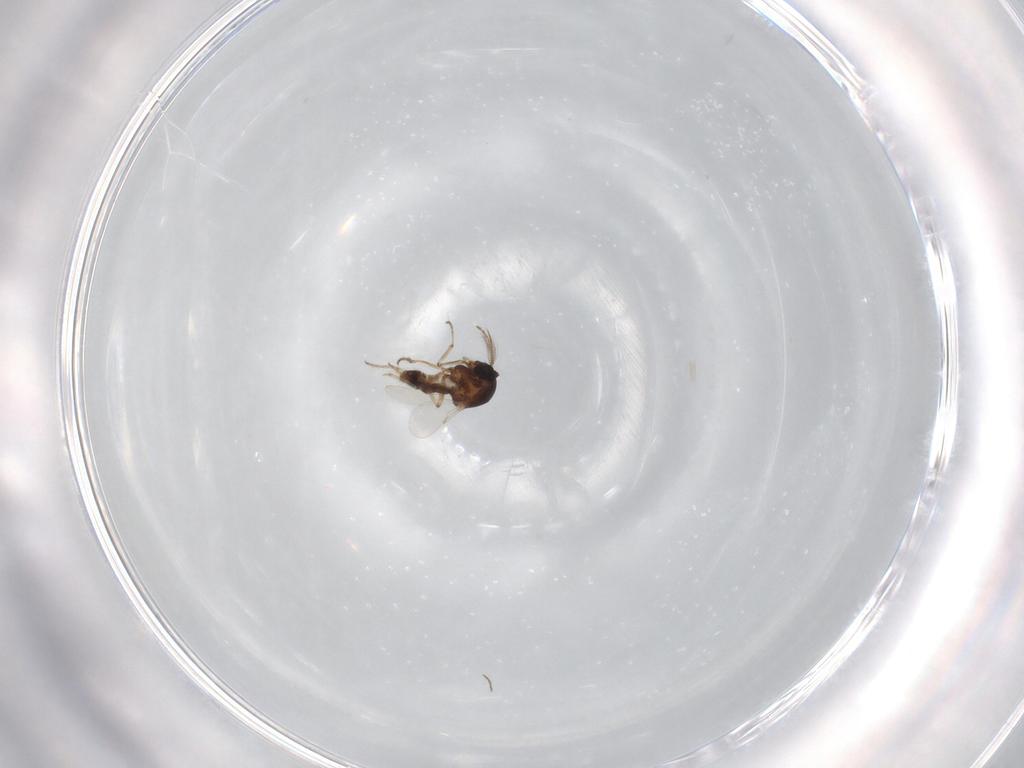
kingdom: Animalia
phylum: Arthropoda
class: Insecta
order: Diptera
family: Ceratopogonidae
